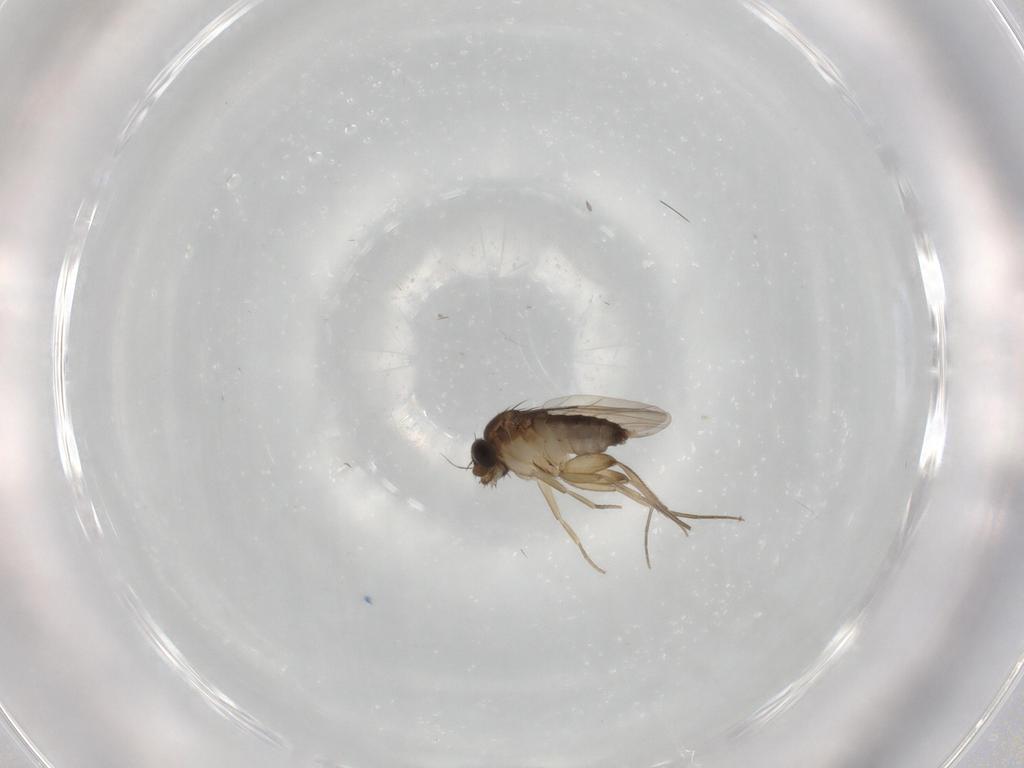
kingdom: Animalia
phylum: Arthropoda
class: Insecta
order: Diptera
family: Phoridae
